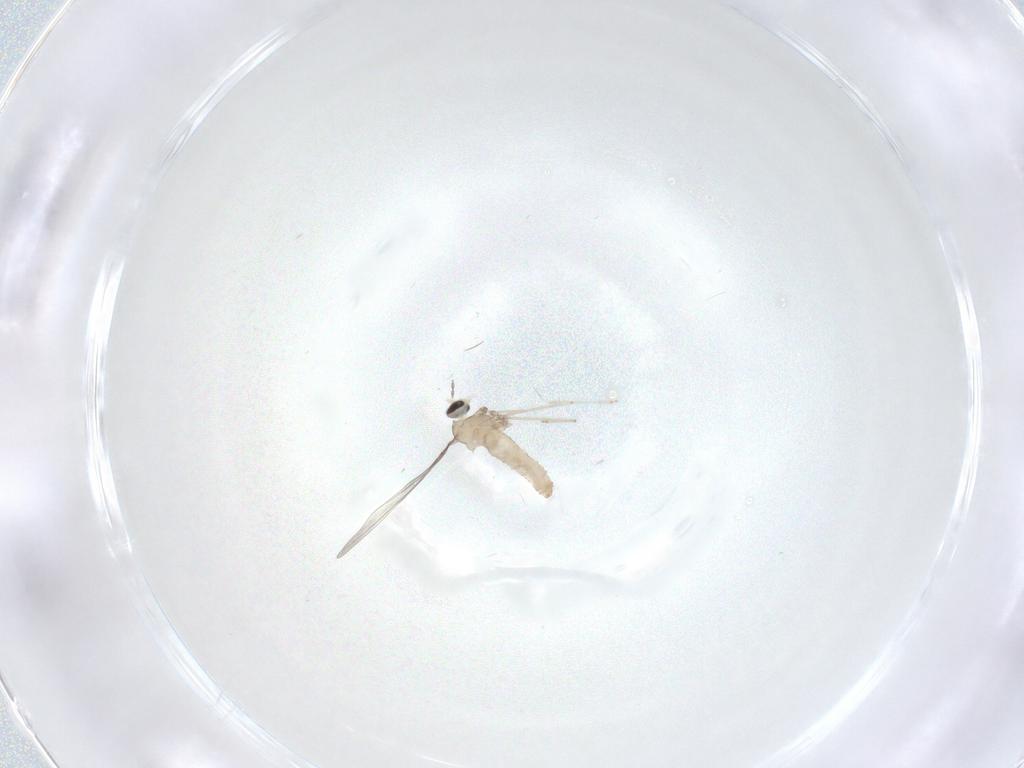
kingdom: Animalia
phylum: Arthropoda
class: Insecta
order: Diptera
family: Cecidomyiidae
